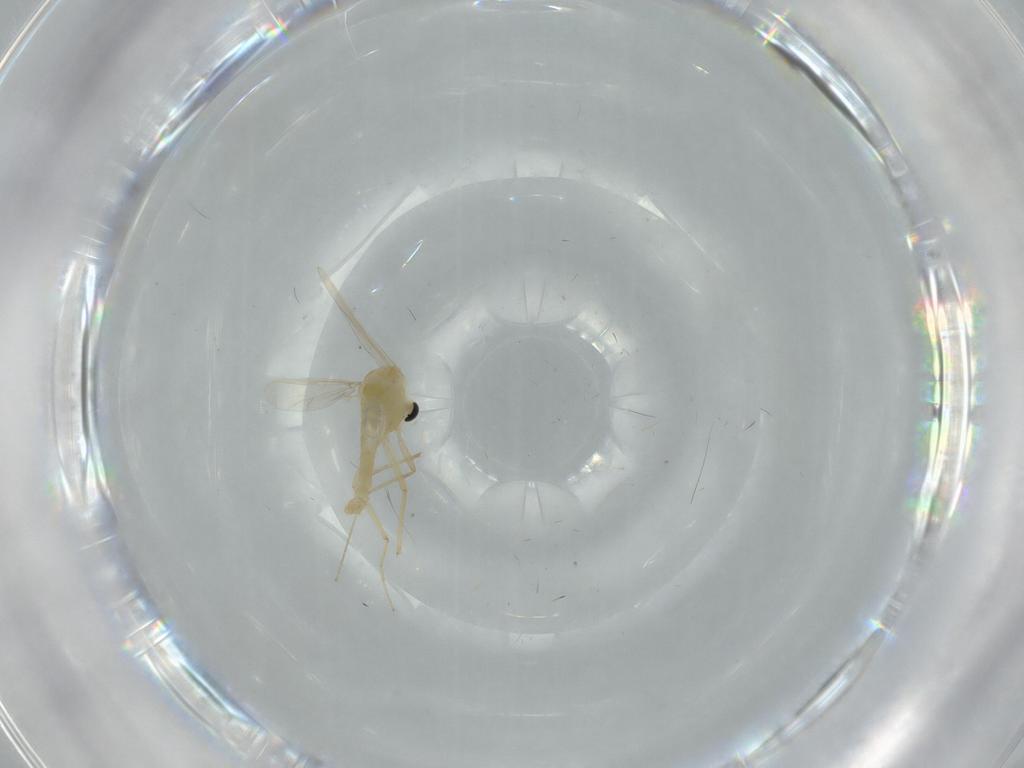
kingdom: Animalia
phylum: Arthropoda
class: Insecta
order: Diptera
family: Chironomidae
